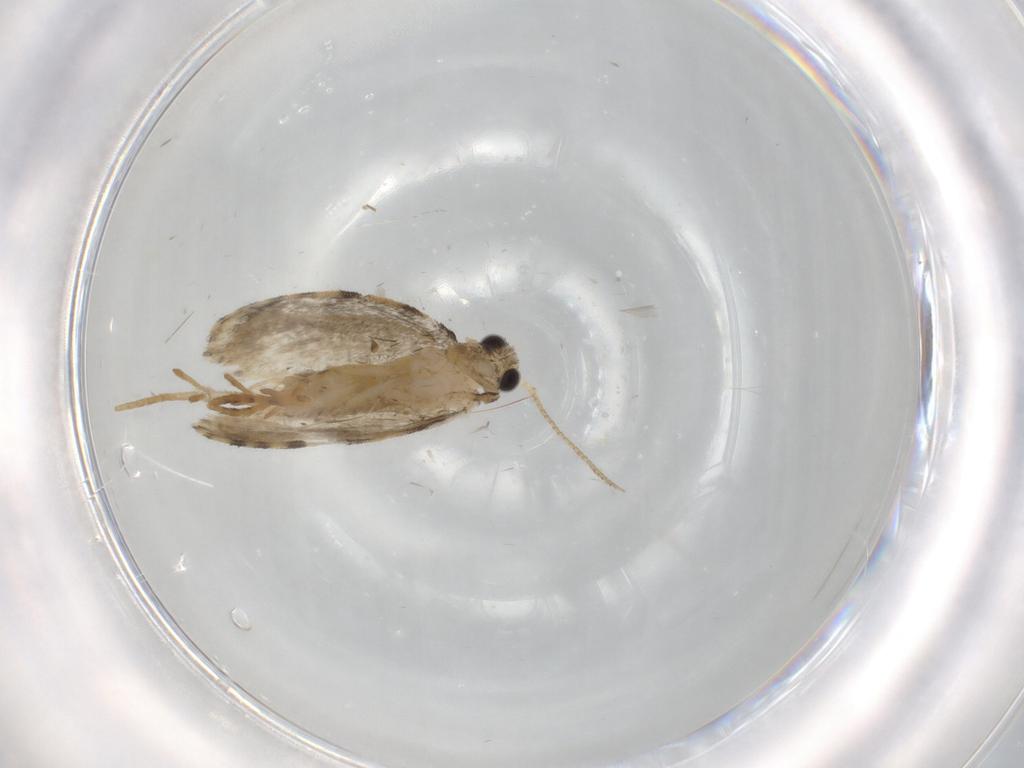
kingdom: Animalia
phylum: Arthropoda
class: Insecta
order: Lepidoptera
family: Psychidae
